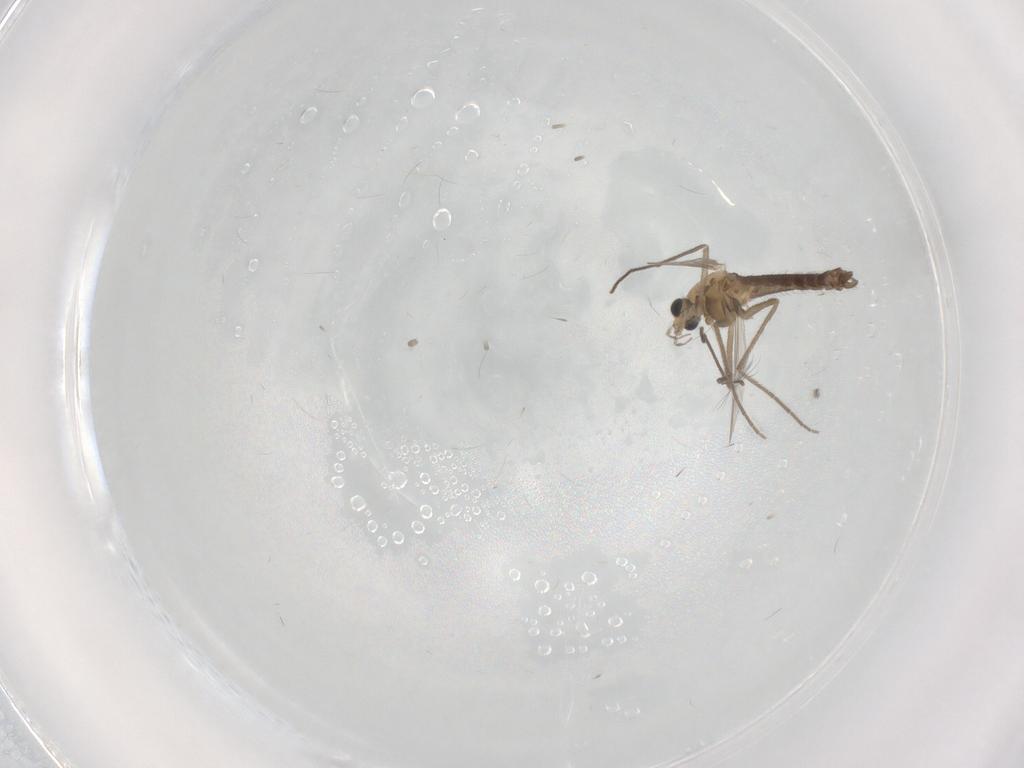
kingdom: Animalia
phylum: Arthropoda
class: Insecta
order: Diptera
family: Chironomidae
